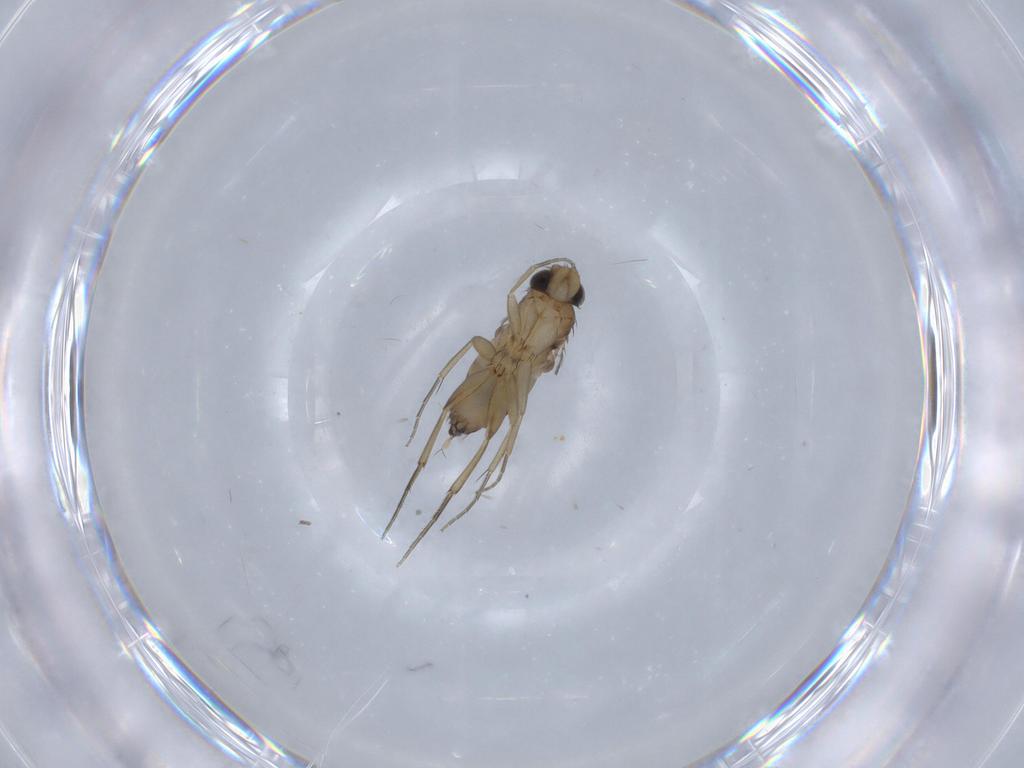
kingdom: Animalia
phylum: Arthropoda
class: Insecta
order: Diptera
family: Cecidomyiidae
